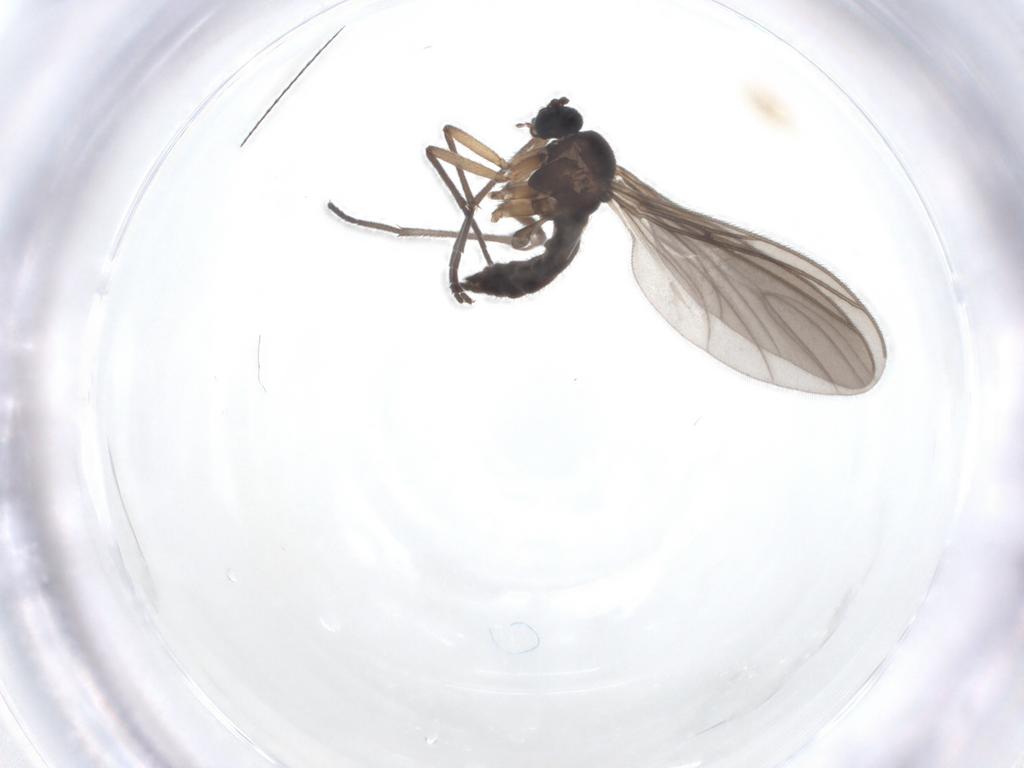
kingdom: Animalia
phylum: Arthropoda
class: Insecta
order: Diptera
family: Sciaridae
